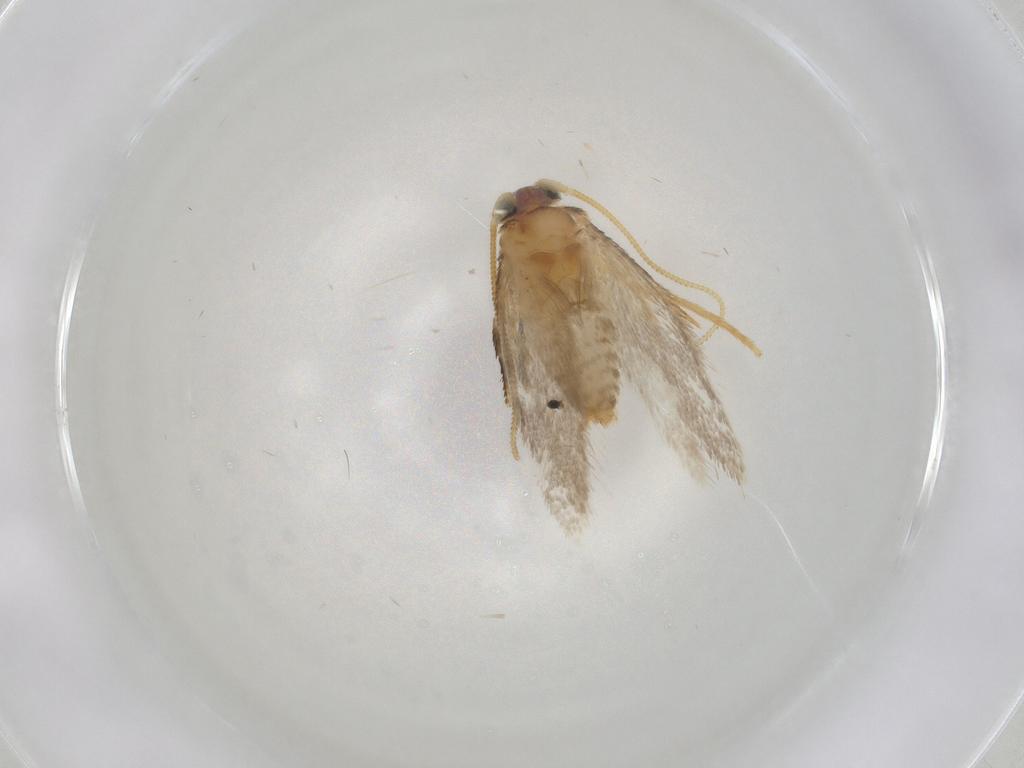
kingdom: Animalia
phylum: Arthropoda
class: Insecta
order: Lepidoptera
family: Nepticulidae
